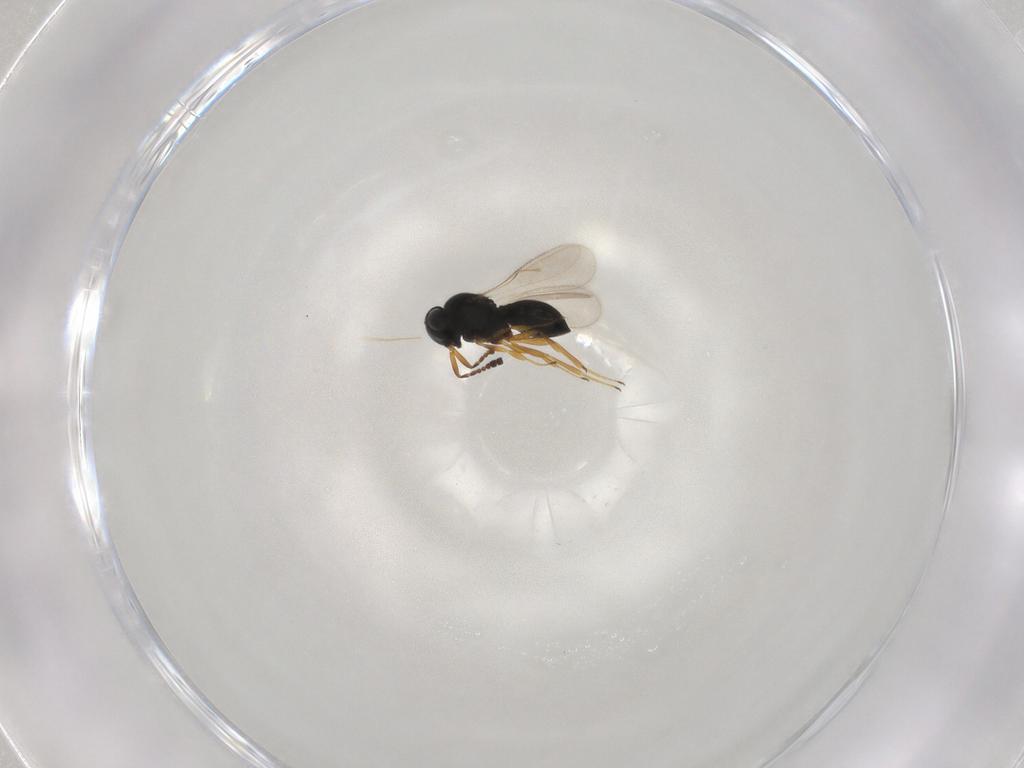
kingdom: Animalia
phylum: Arthropoda
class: Insecta
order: Hymenoptera
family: Scelionidae
